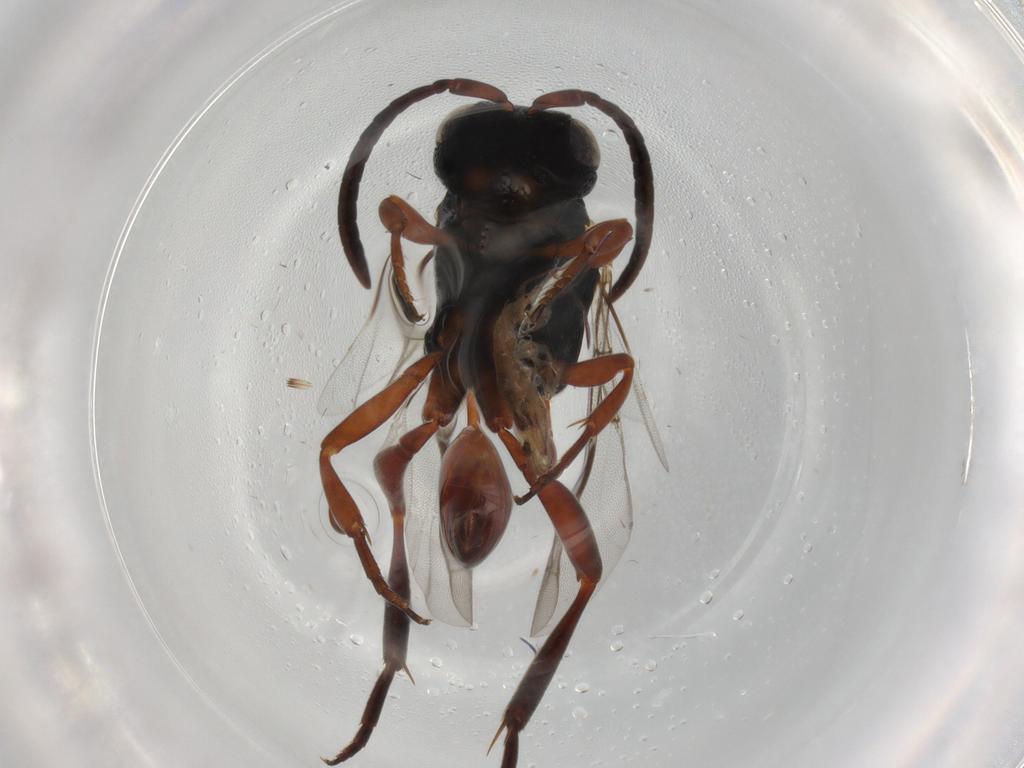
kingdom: Animalia
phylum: Arthropoda
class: Insecta
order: Hymenoptera
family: Evaniidae
